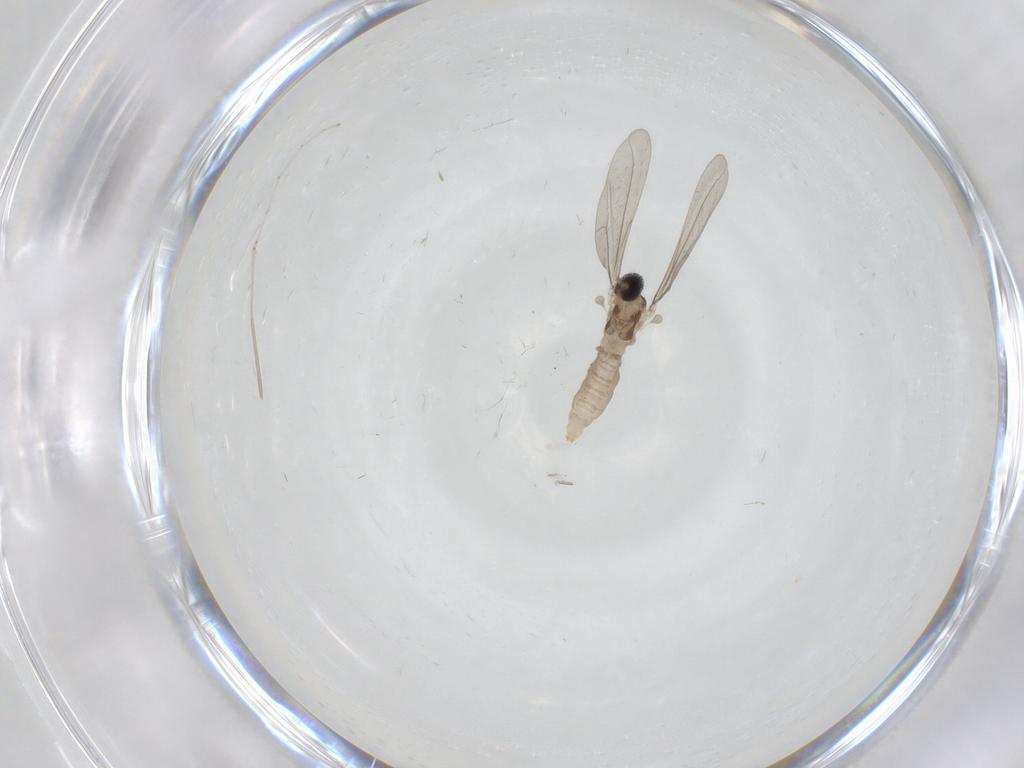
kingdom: Animalia
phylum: Arthropoda
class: Insecta
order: Diptera
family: Cecidomyiidae
